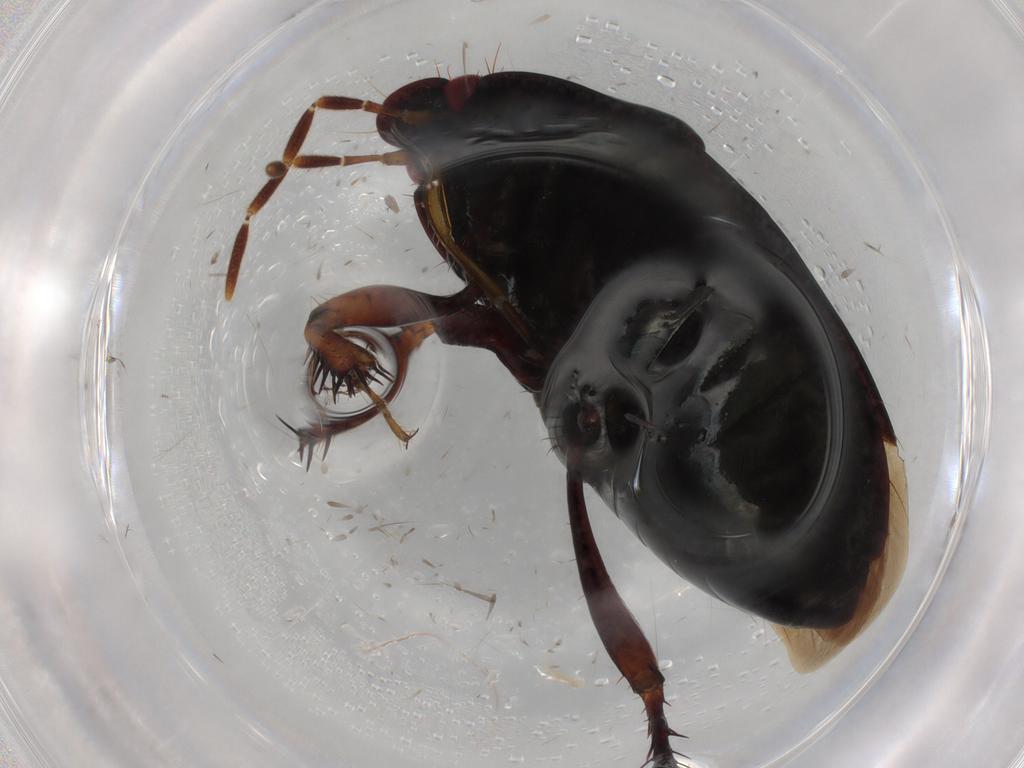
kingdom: Animalia
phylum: Arthropoda
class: Insecta
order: Hemiptera
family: Cydnidae
